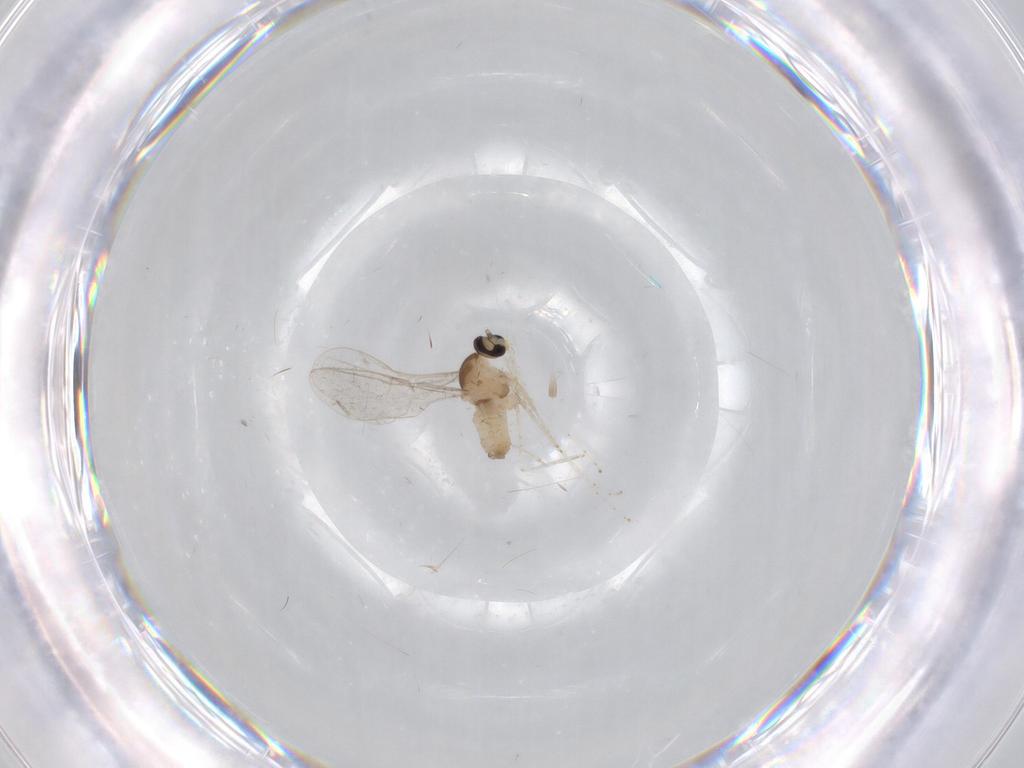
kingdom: Animalia
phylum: Arthropoda
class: Insecta
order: Diptera
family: Cecidomyiidae
